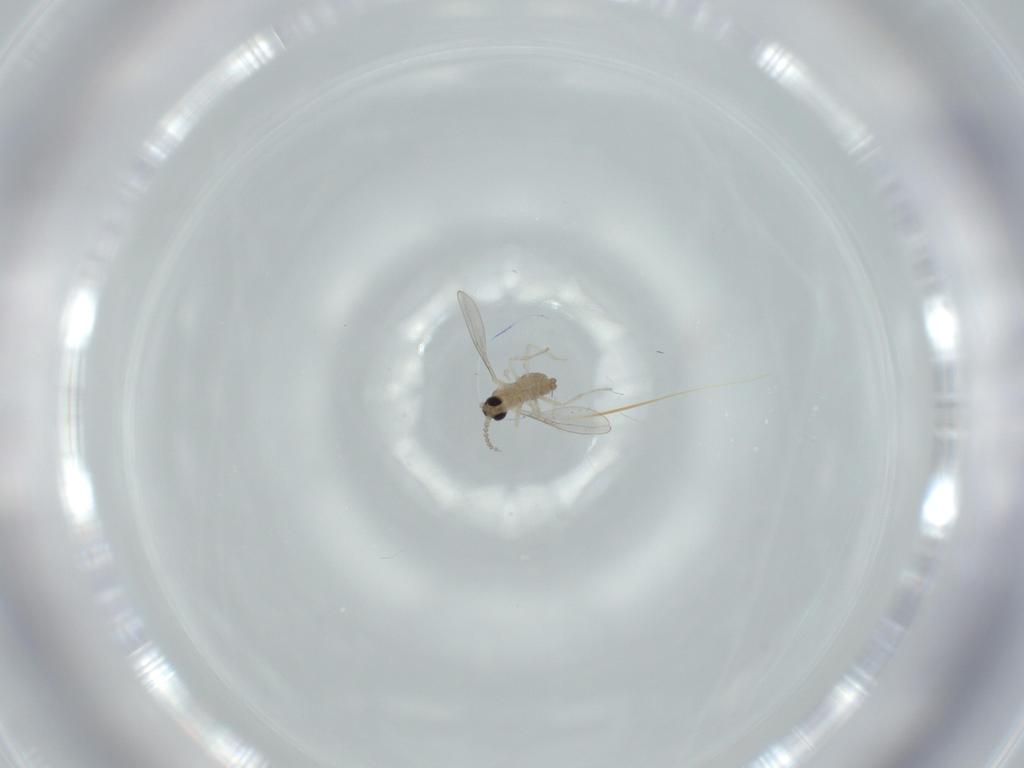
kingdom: Animalia
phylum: Arthropoda
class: Insecta
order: Diptera
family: Cecidomyiidae
